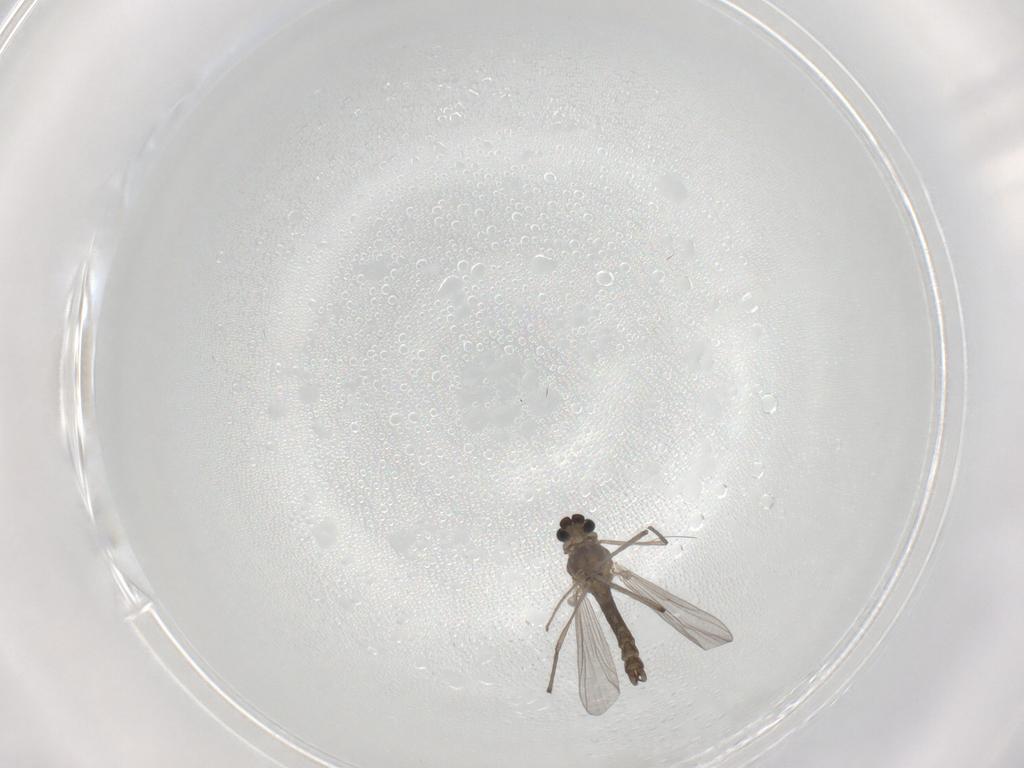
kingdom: Animalia
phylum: Arthropoda
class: Insecta
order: Diptera
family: Chironomidae
